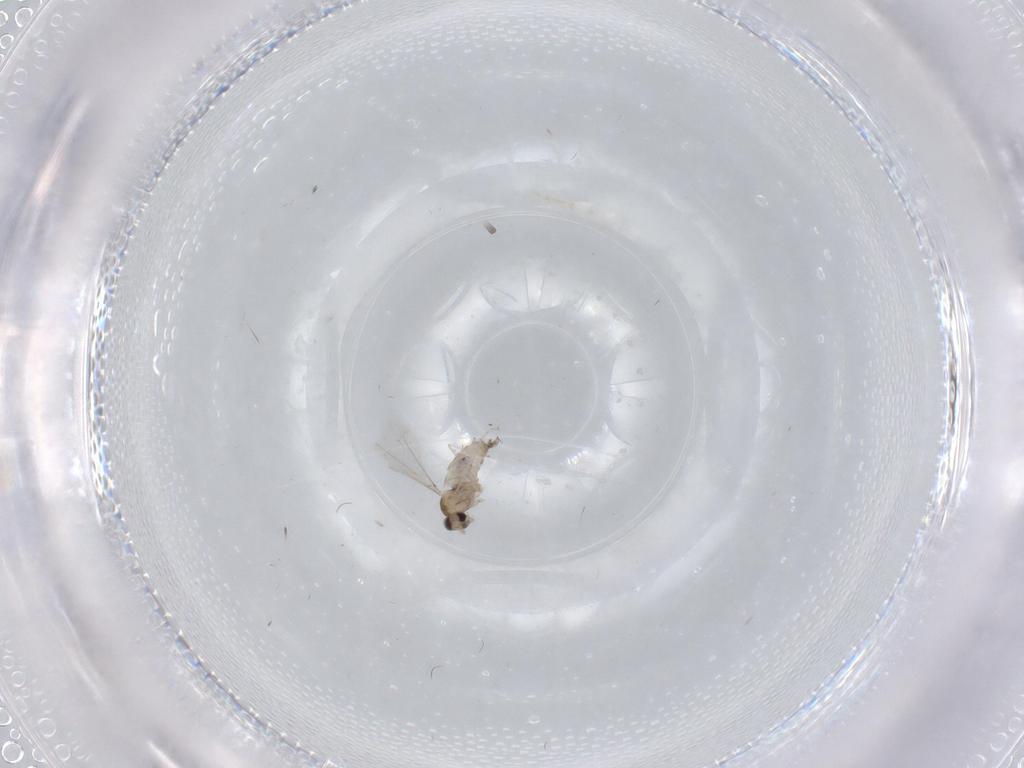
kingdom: Animalia
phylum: Arthropoda
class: Insecta
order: Diptera
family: Cecidomyiidae
